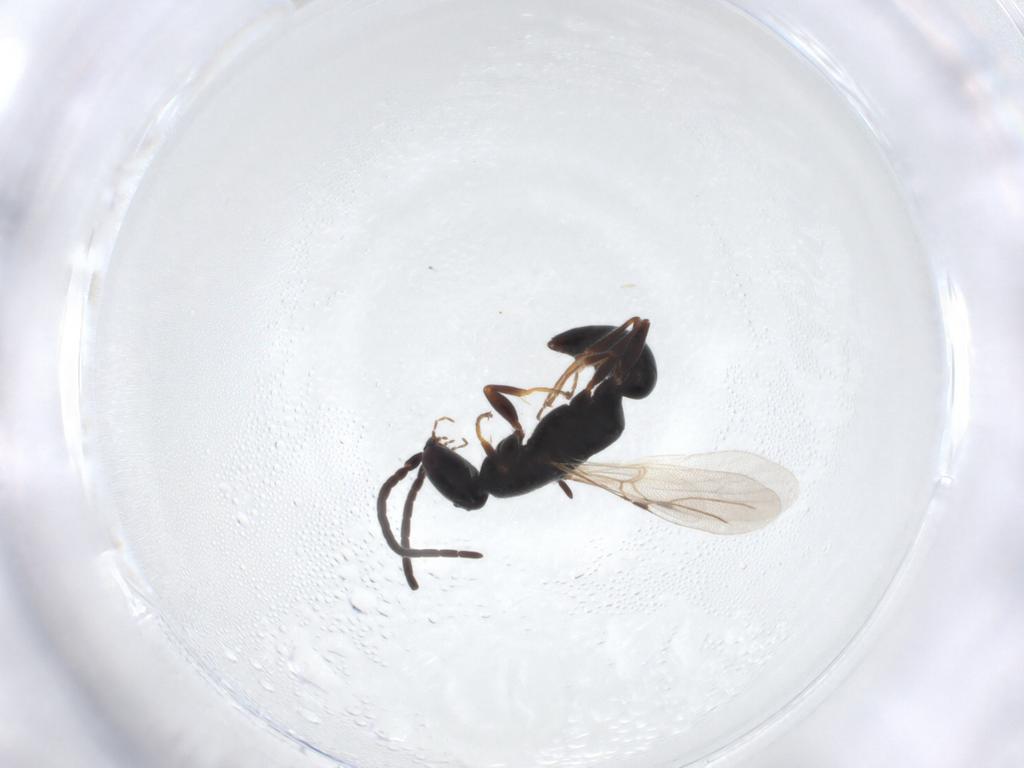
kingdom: Animalia
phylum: Arthropoda
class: Insecta
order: Hymenoptera
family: Bethylidae
